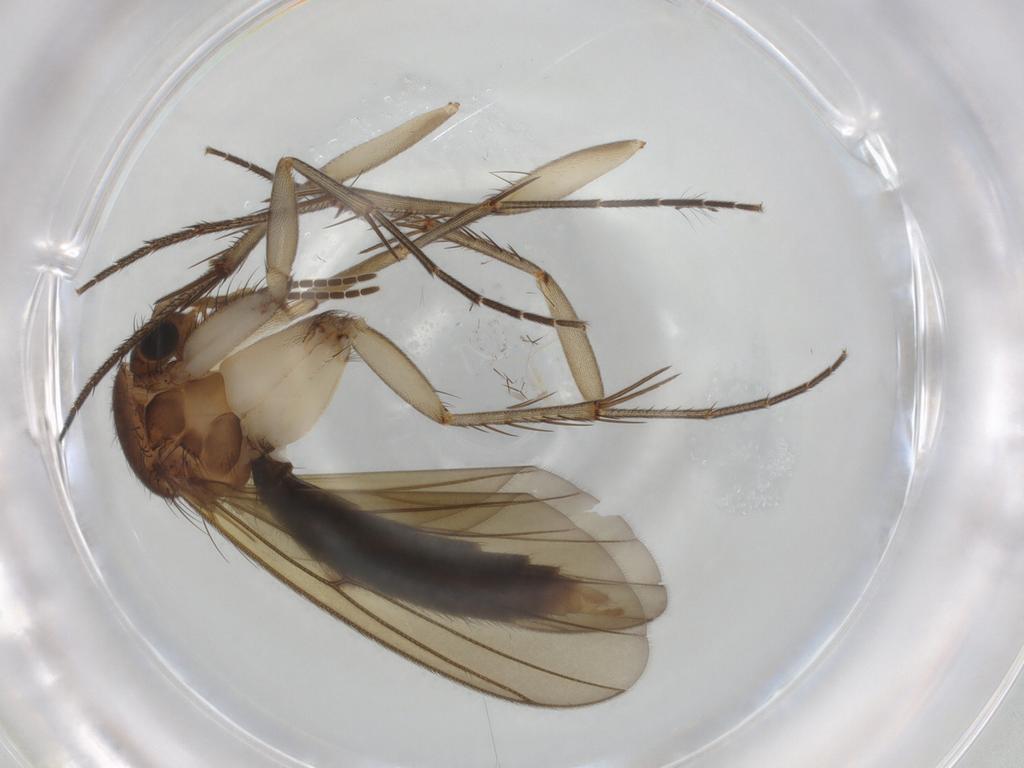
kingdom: Animalia
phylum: Arthropoda
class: Insecta
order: Diptera
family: Mycetophilidae
